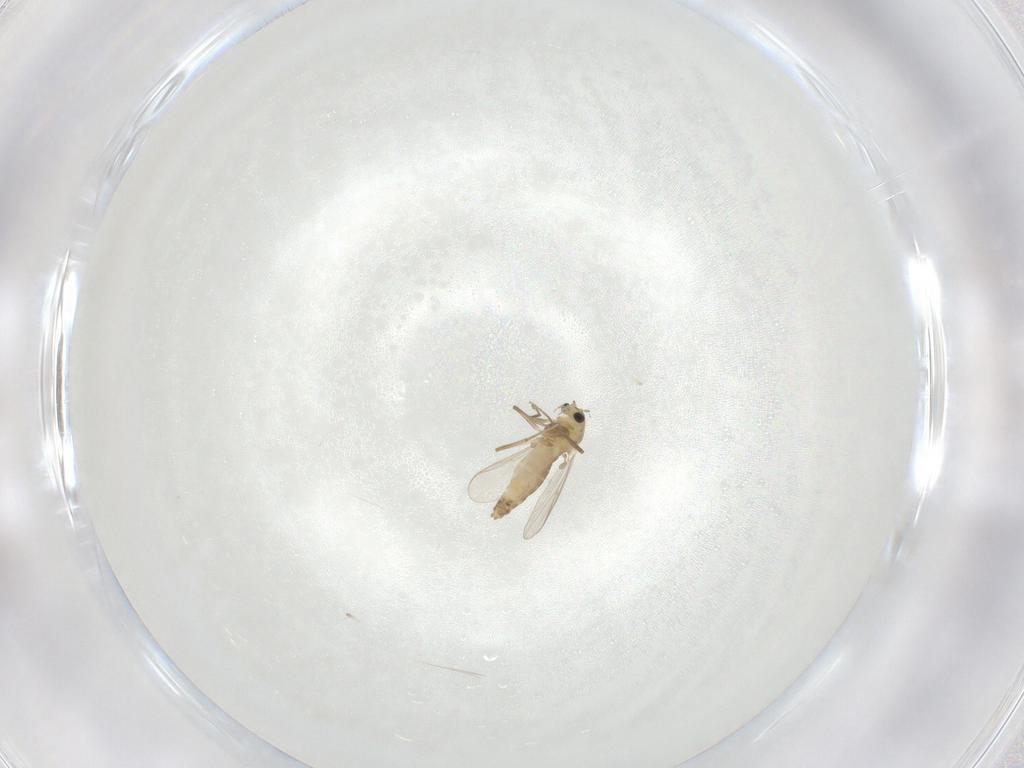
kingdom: Animalia
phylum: Arthropoda
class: Insecta
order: Diptera
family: Chironomidae
